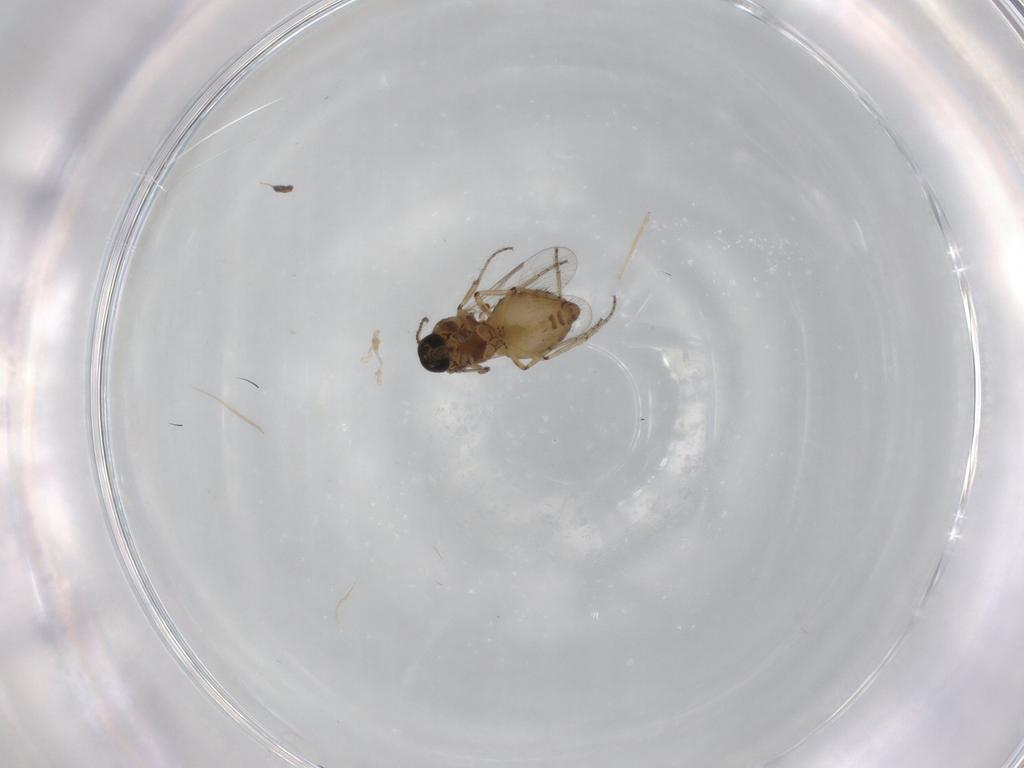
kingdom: Animalia
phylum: Arthropoda
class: Insecta
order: Diptera
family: Ceratopogonidae
